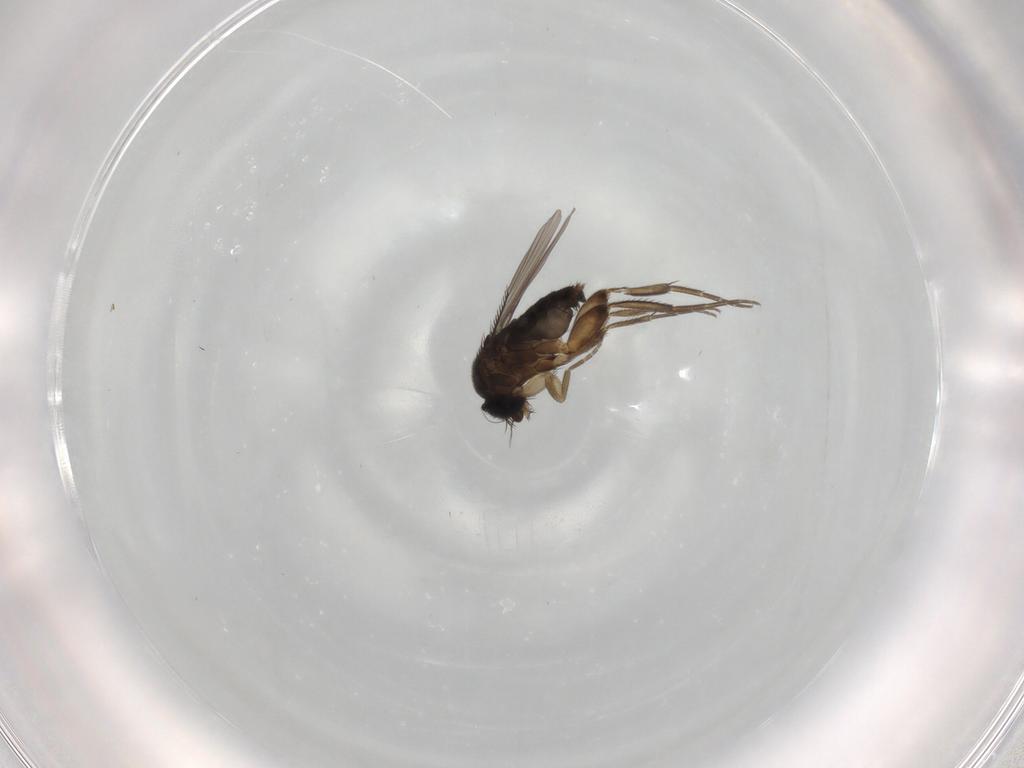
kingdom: Animalia
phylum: Arthropoda
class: Insecta
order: Diptera
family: Phoridae
